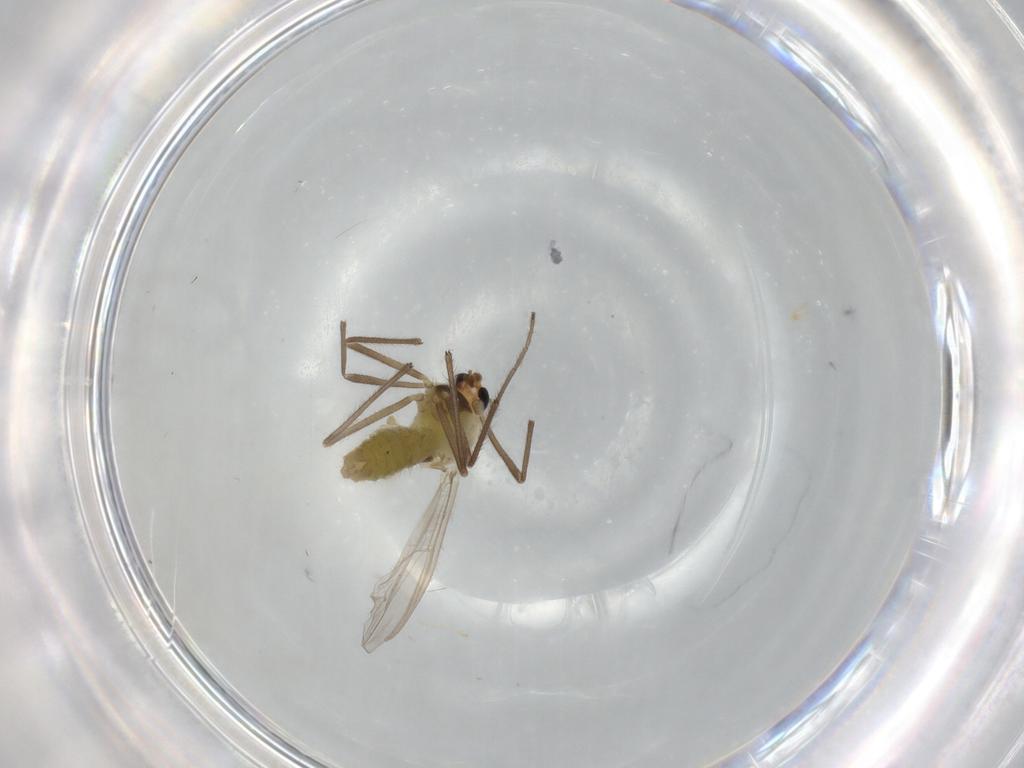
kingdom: Animalia
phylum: Arthropoda
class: Insecta
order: Diptera
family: Chironomidae
